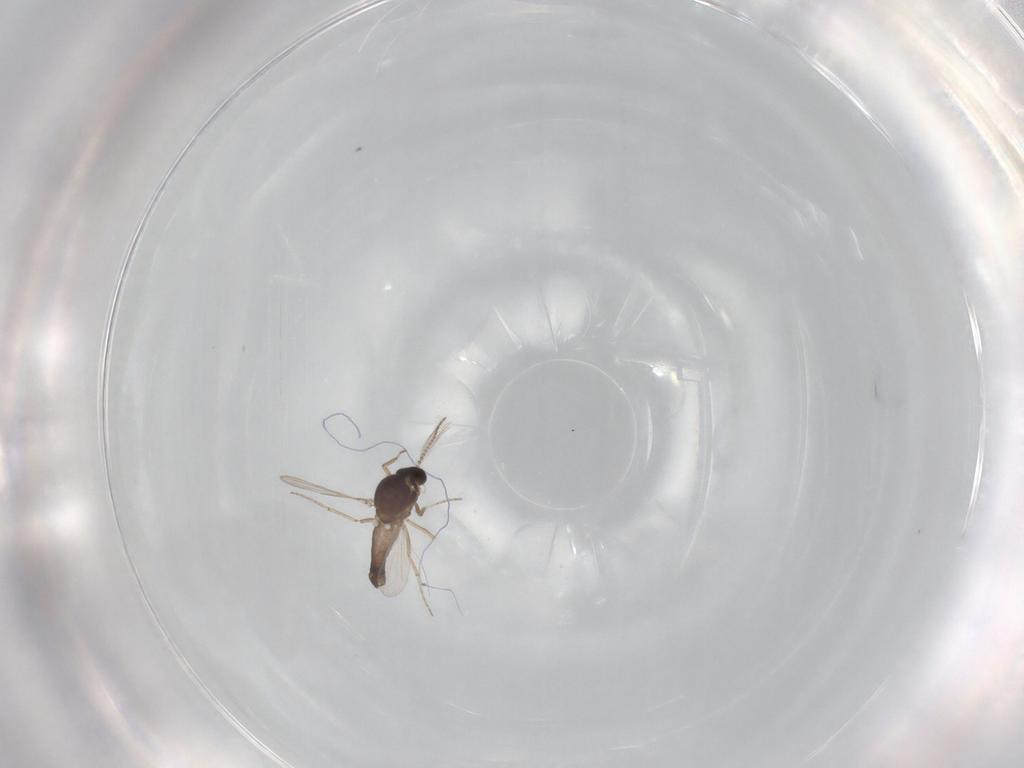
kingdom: Animalia
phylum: Arthropoda
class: Insecta
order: Diptera
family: Ceratopogonidae
